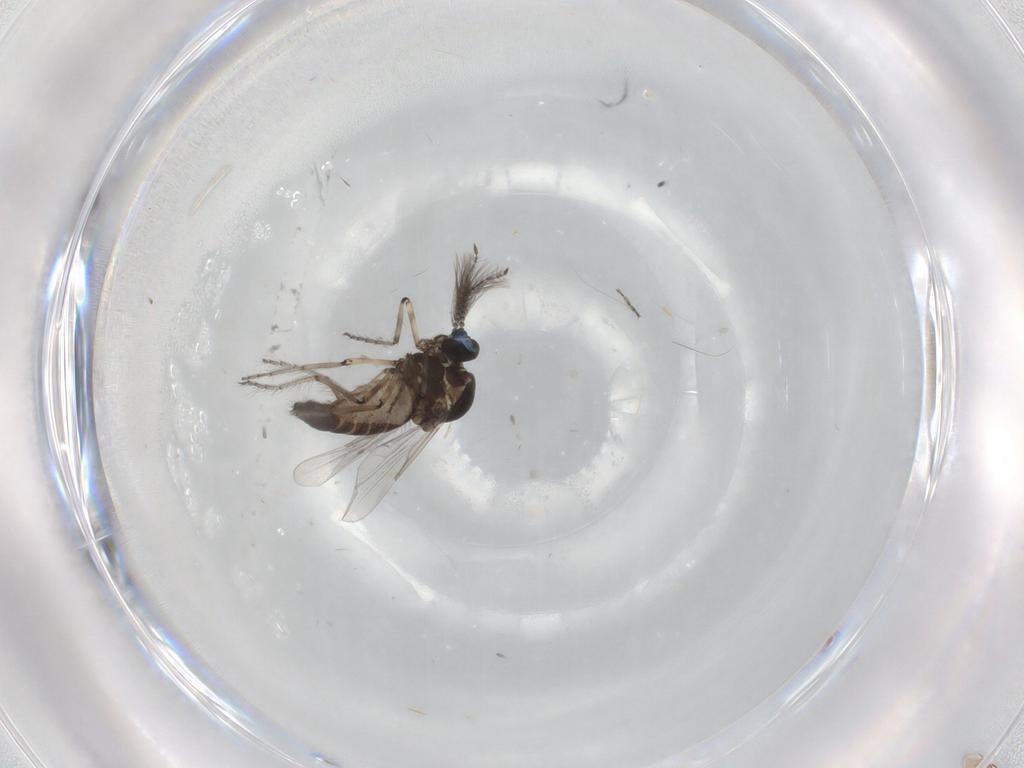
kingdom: Animalia
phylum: Arthropoda
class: Insecta
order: Diptera
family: Ceratopogonidae
